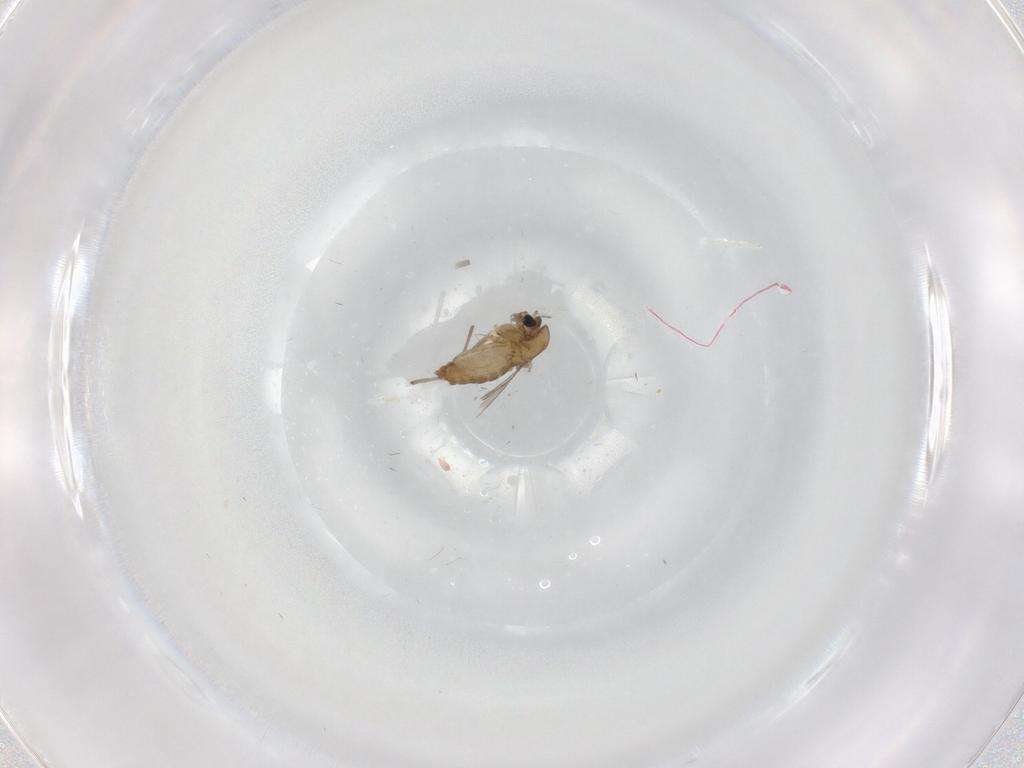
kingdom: Animalia
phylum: Arthropoda
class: Insecta
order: Diptera
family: Chironomidae
